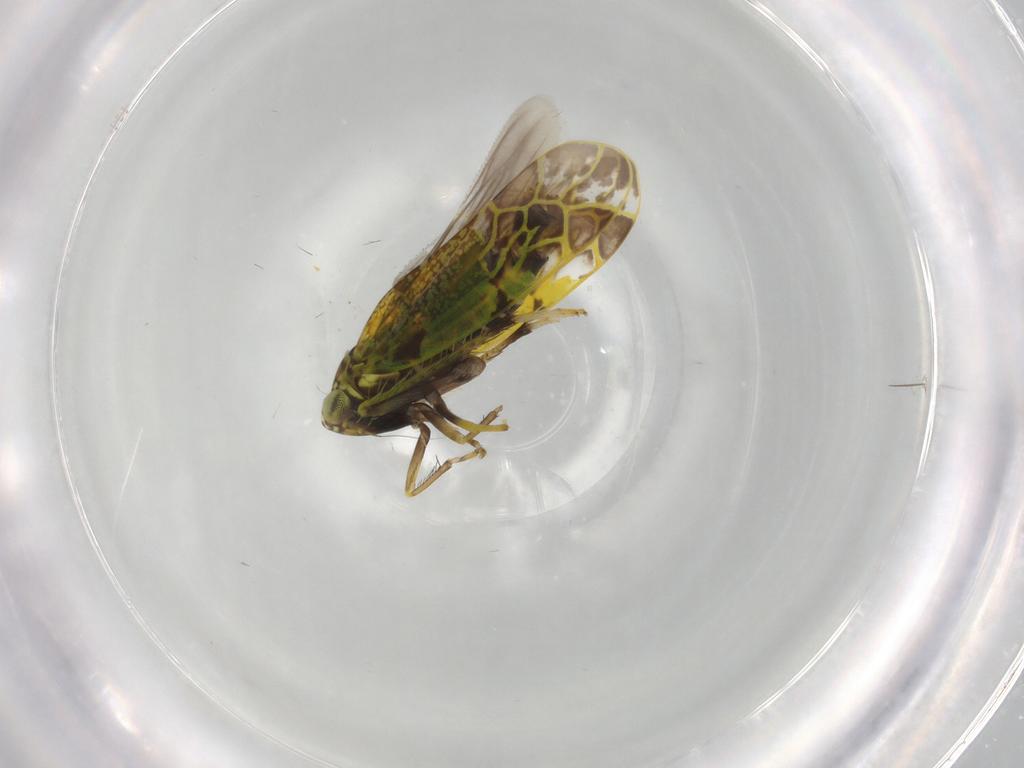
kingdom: Animalia
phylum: Arthropoda
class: Insecta
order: Hemiptera
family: Cicadellidae
